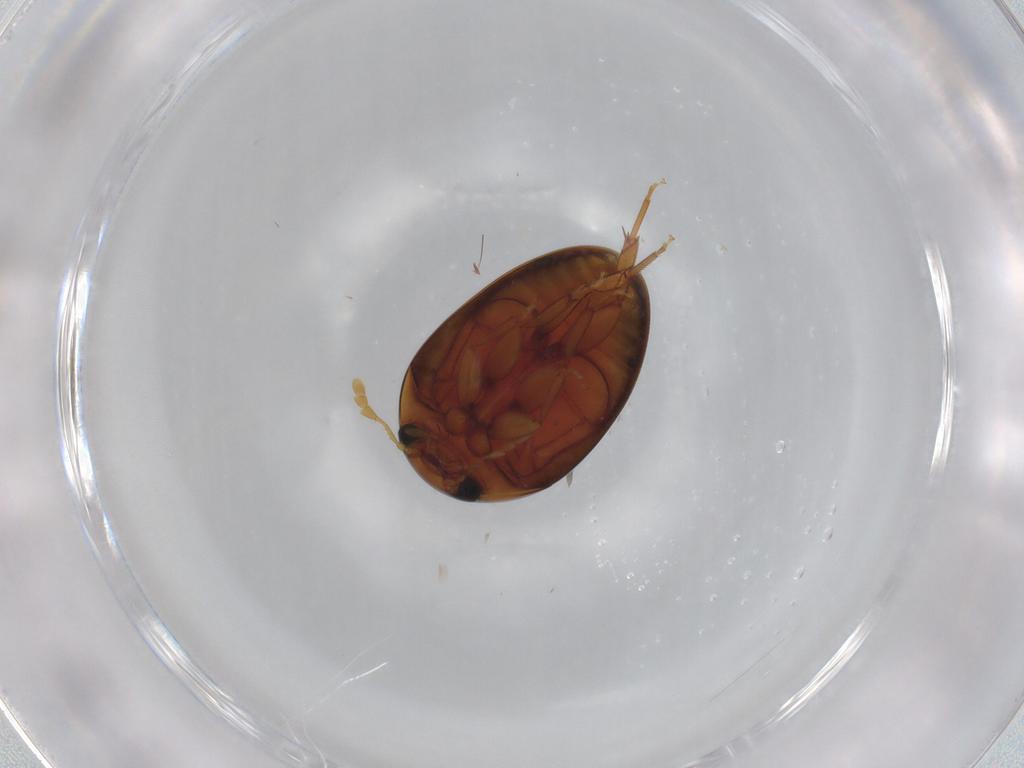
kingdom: Animalia
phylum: Arthropoda
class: Insecta
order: Coleoptera
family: Phalacridae
